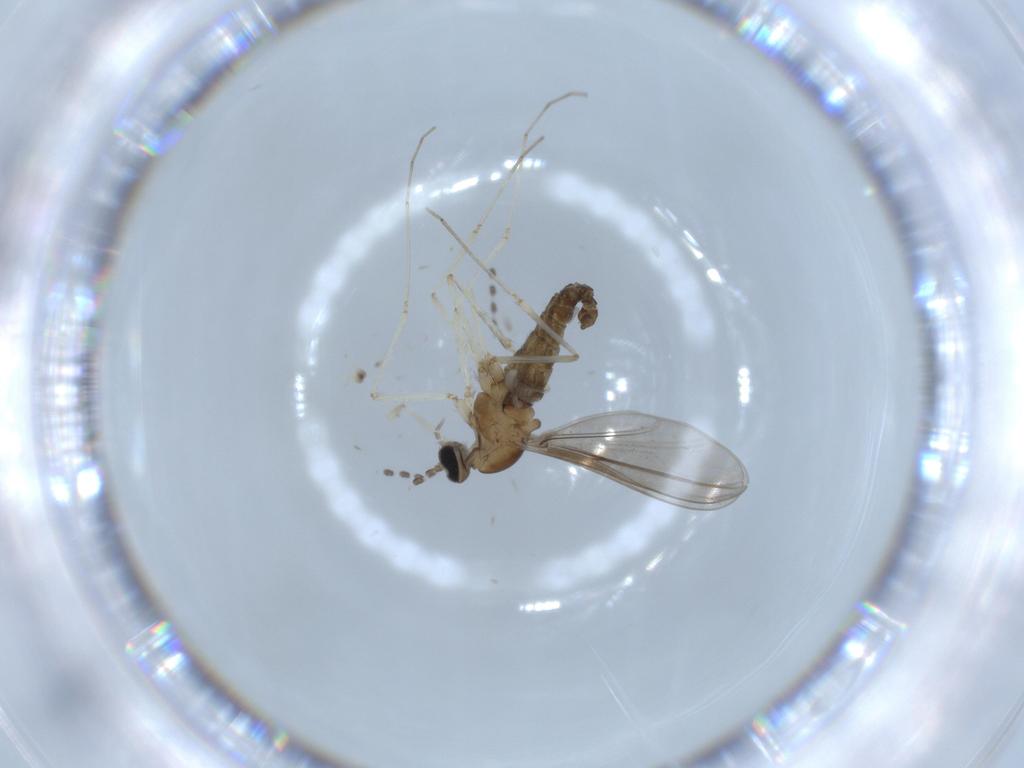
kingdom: Animalia
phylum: Arthropoda
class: Insecta
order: Diptera
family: Cecidomyiidae
